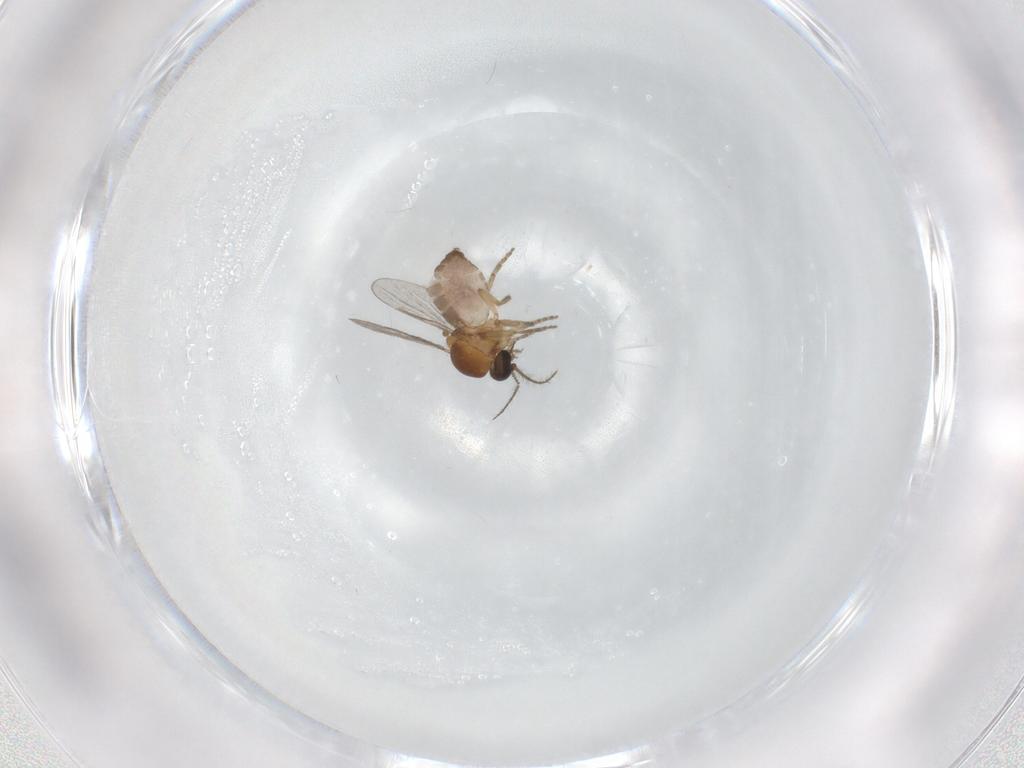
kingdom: Animalia
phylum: Arthropoda
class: Insecta
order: Diptera
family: Ceratopogonidae
